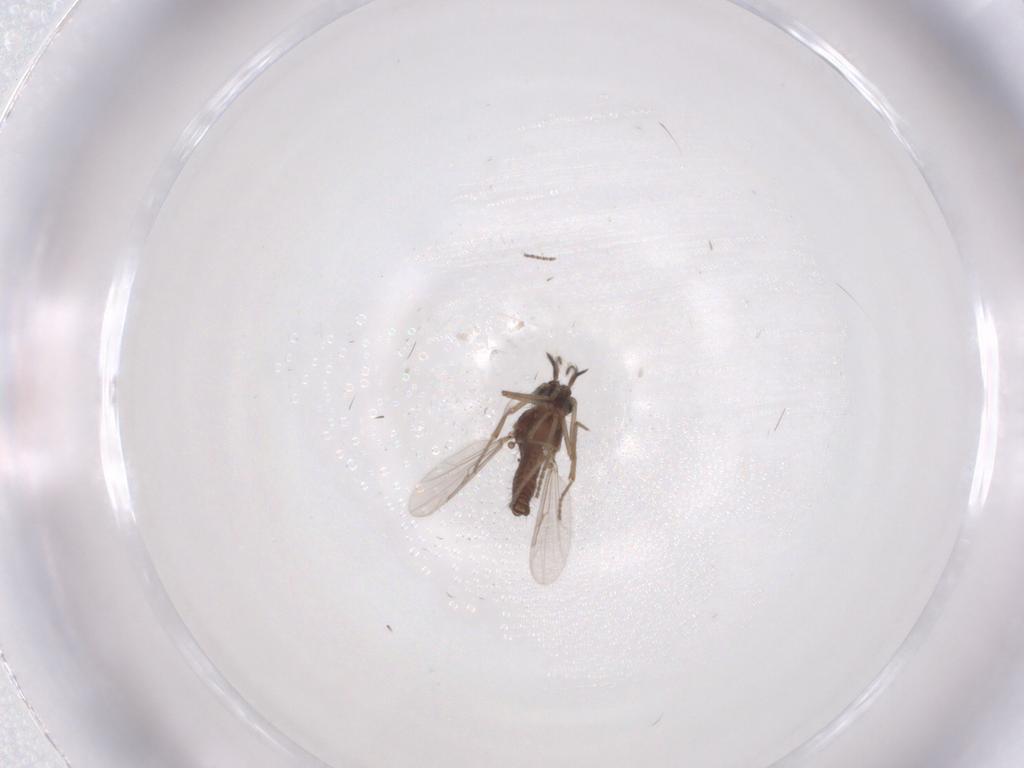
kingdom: Animalia
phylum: Arthropoda
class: Insecta
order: Diptera
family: Ceratopogonidae
